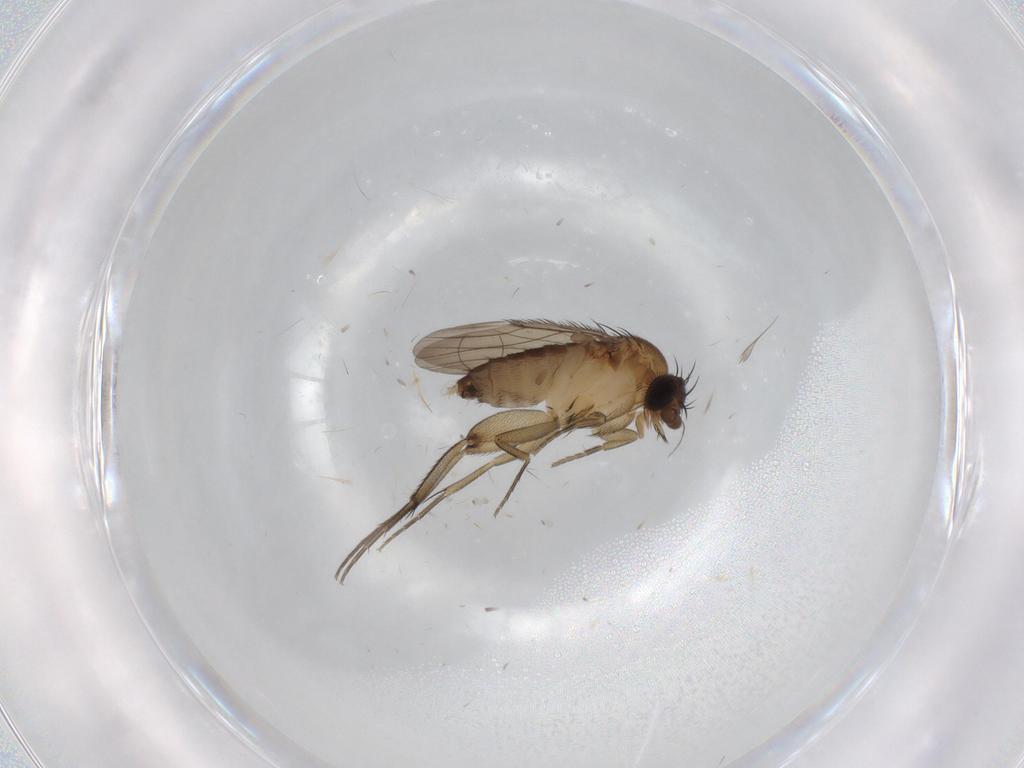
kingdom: Animalia
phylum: Arthropoda
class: Insecta
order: Diptera
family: Phoridae
